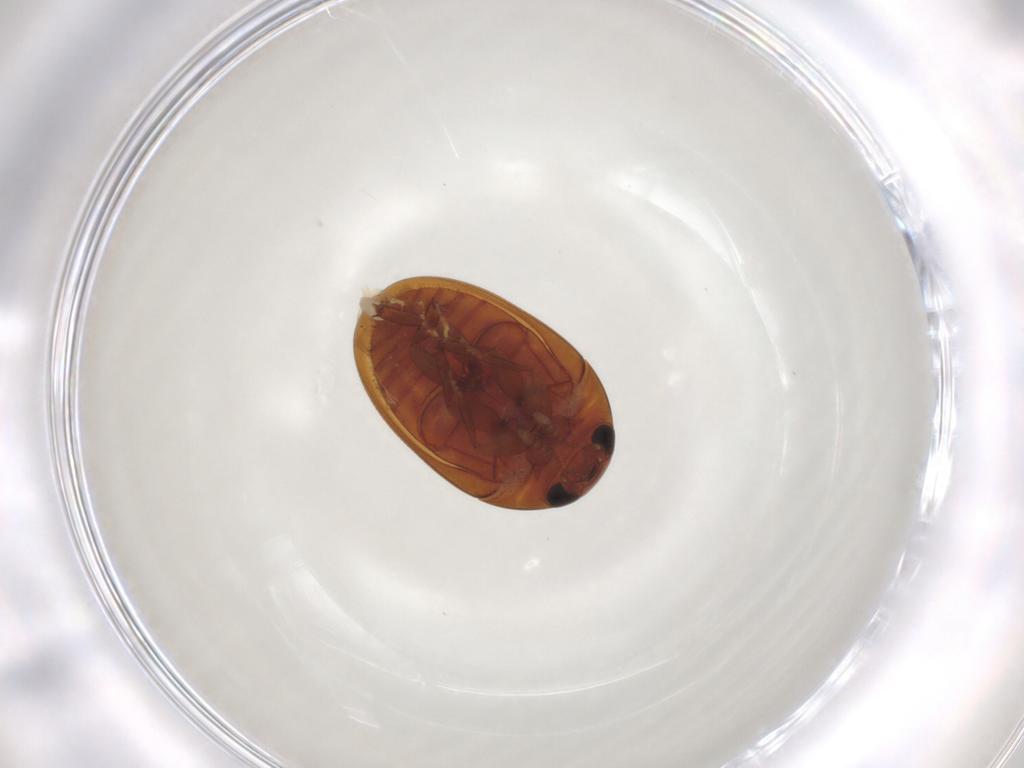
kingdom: Animalia
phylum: Arthropoda
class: Insecta
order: Coleoptera
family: Phalacridae
